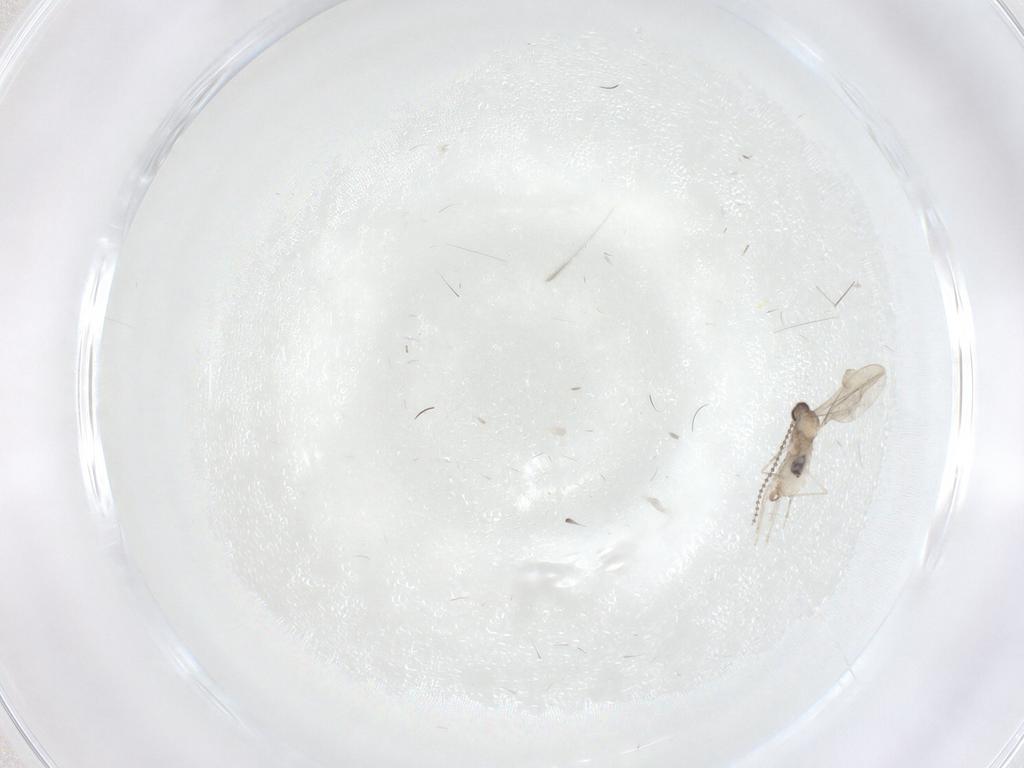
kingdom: Animalia
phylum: Arthropoda
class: Insecta
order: Diptera
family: Cecidomyiidae
